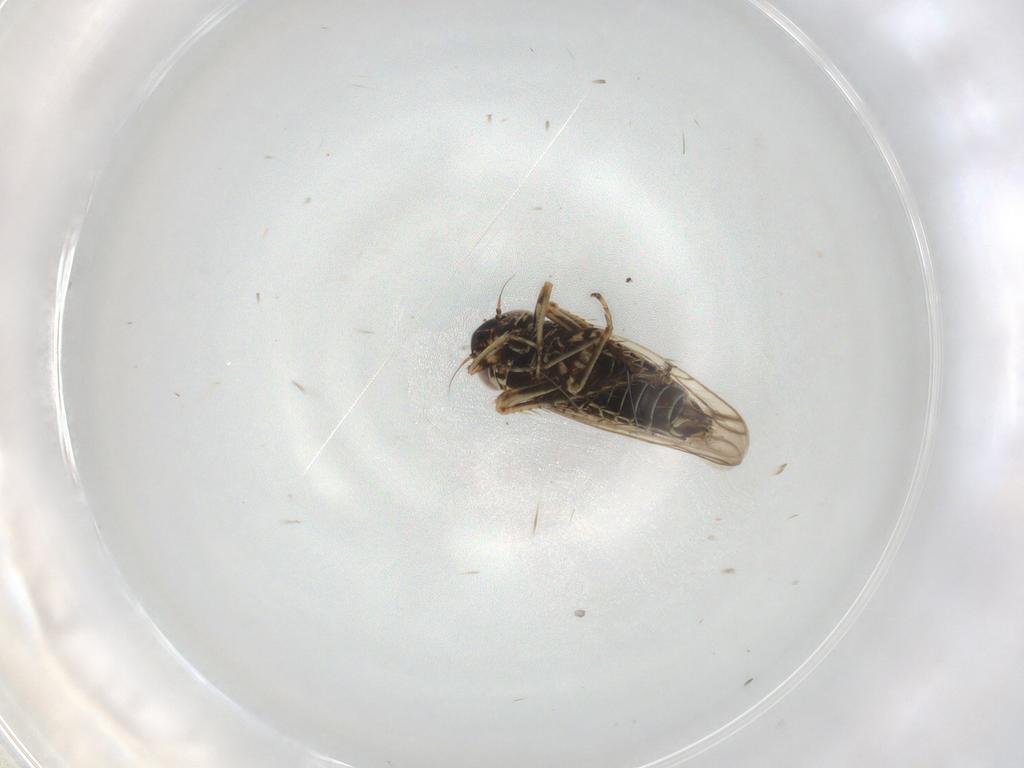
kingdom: Animalia
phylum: Arthropoda
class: Insecta
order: Hemiptera
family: Cicadellidae
